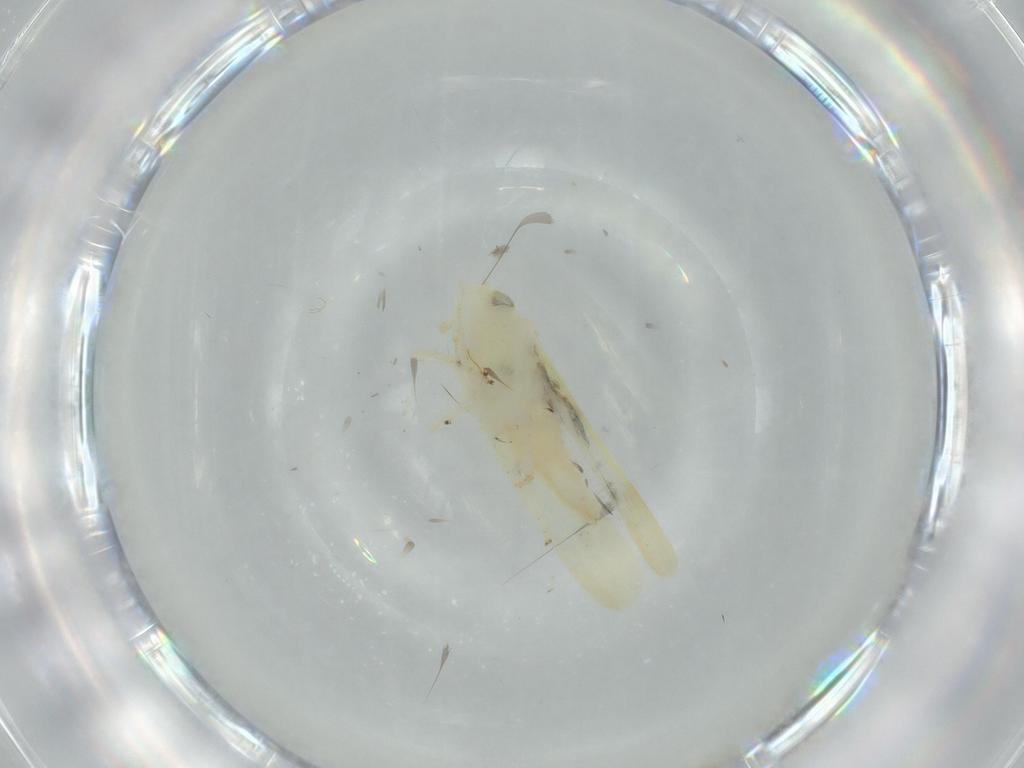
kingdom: Animalia
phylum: Arthropoda
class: Insecta
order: Hemiptera
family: Cicadellidae
